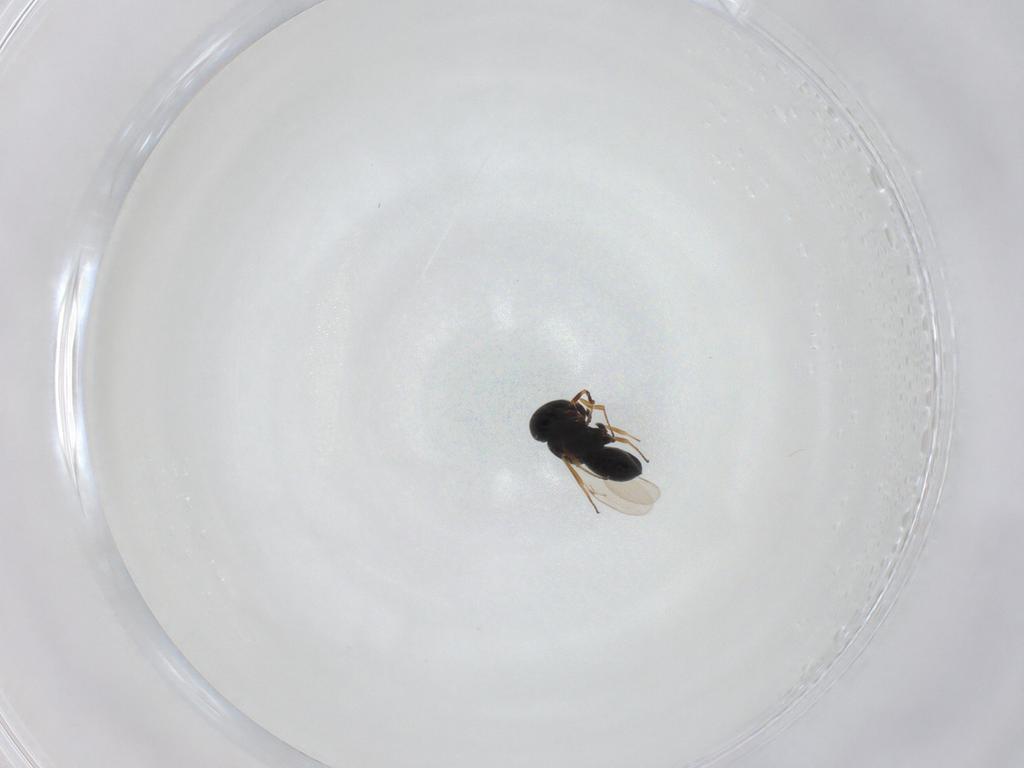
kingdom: Animalia
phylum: Arthropoda
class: Insecta
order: Hymenoptera
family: Scelionidae
